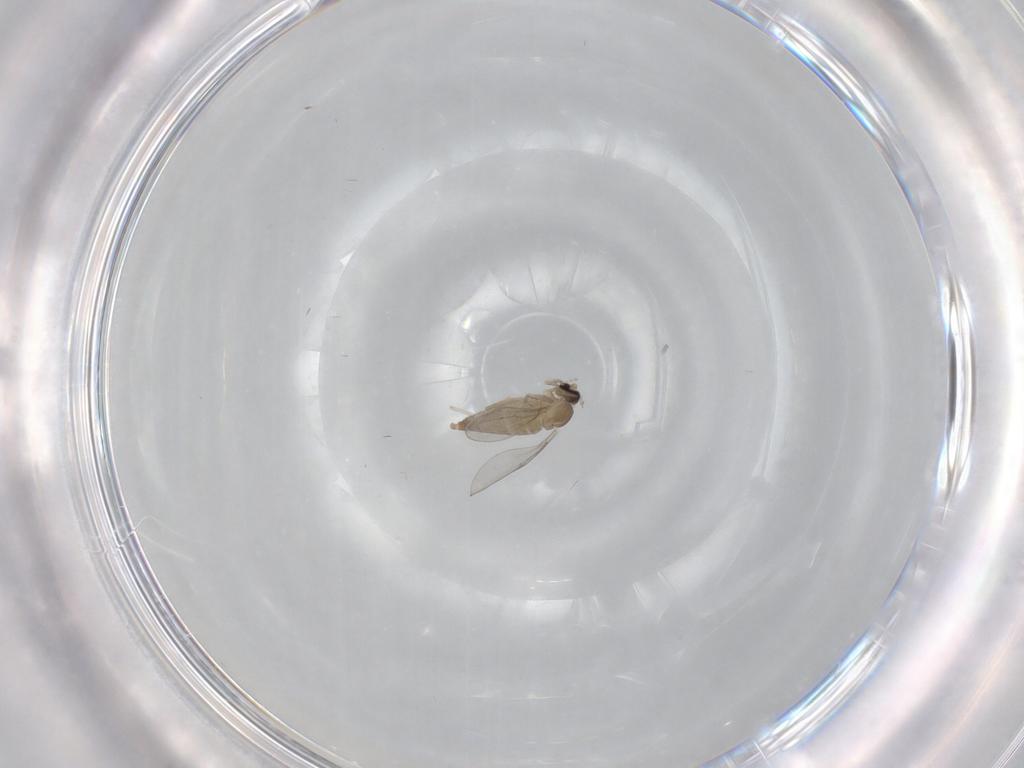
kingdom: Animalia
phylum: Arthropoda
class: Insecta
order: Diptera
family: Cecidomyiidae
